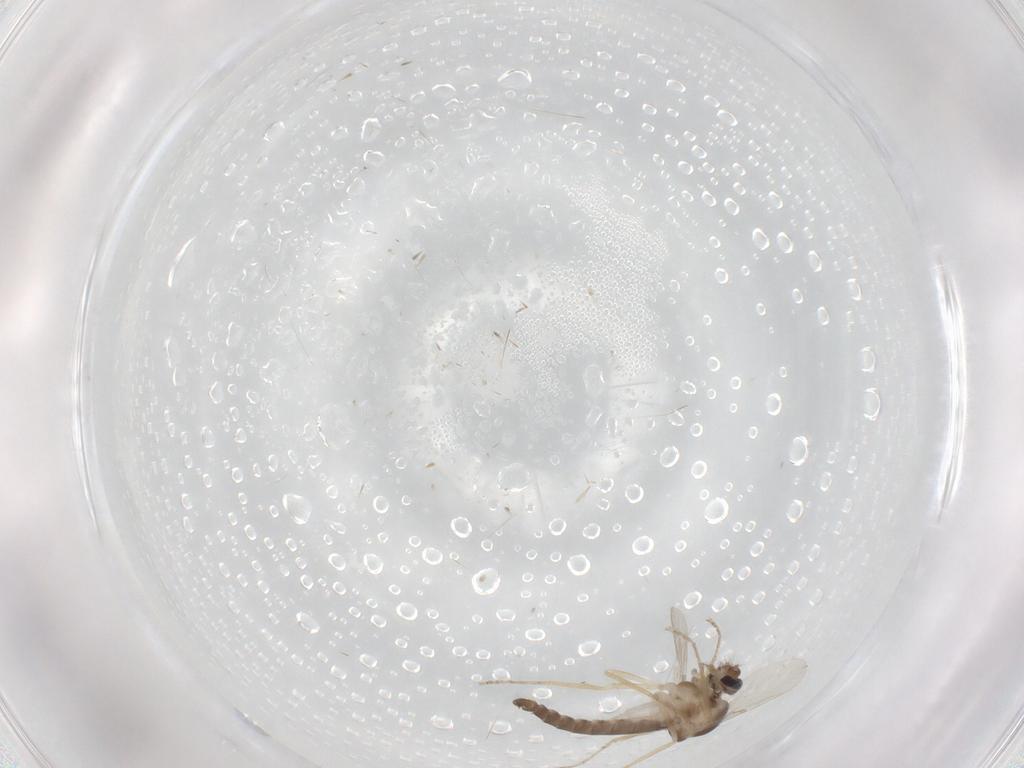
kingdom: Animalia
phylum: Arthropoda
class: Insecta
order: Diptera
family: Ceratopogonidae
